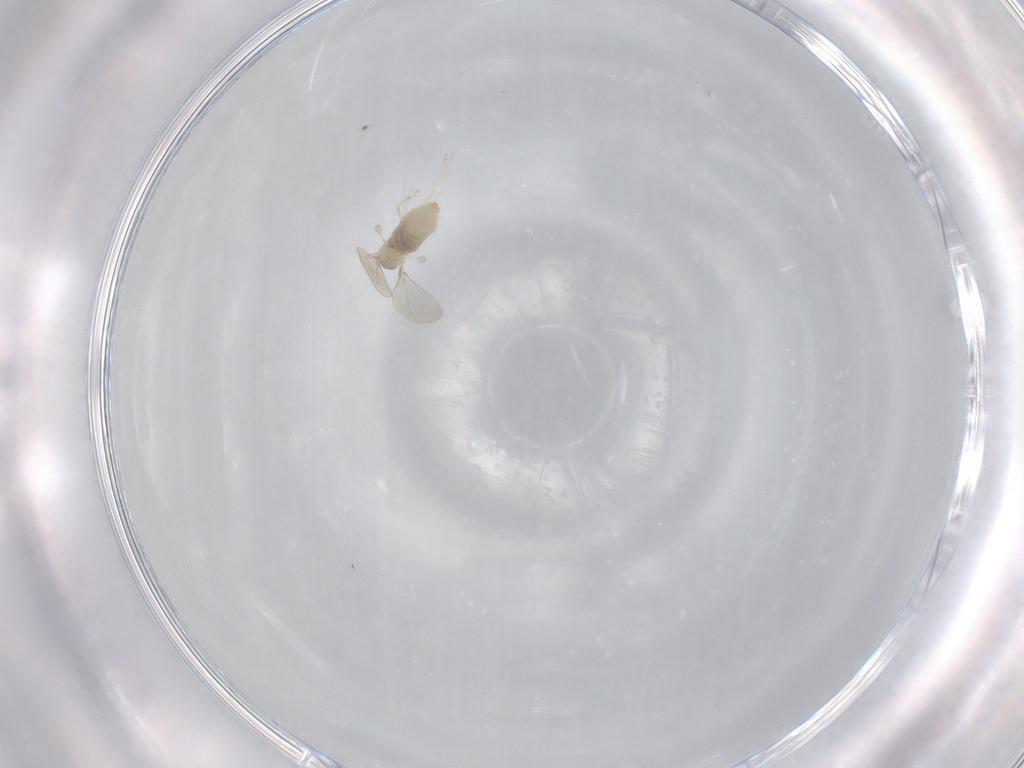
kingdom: Animalia
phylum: Arthropoda
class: Insecta
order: Diptera
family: Cecidomyiidae
